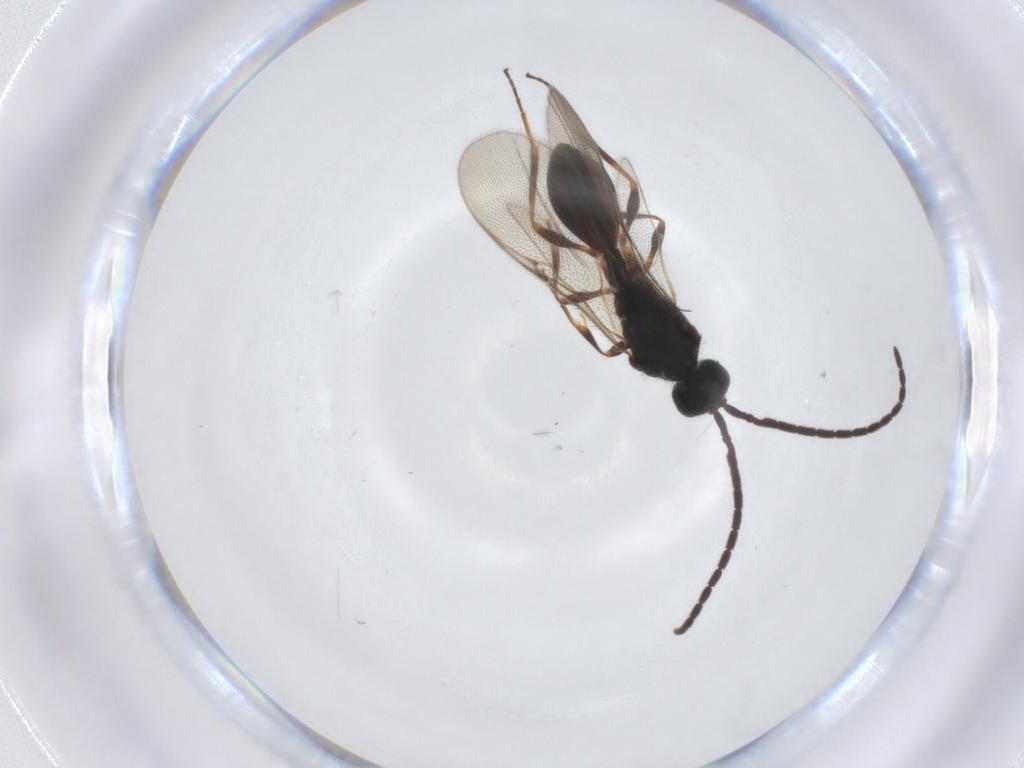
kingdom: Animalia
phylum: Arthropoda
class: Insecta
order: Hymenoptera
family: Diapriidae
